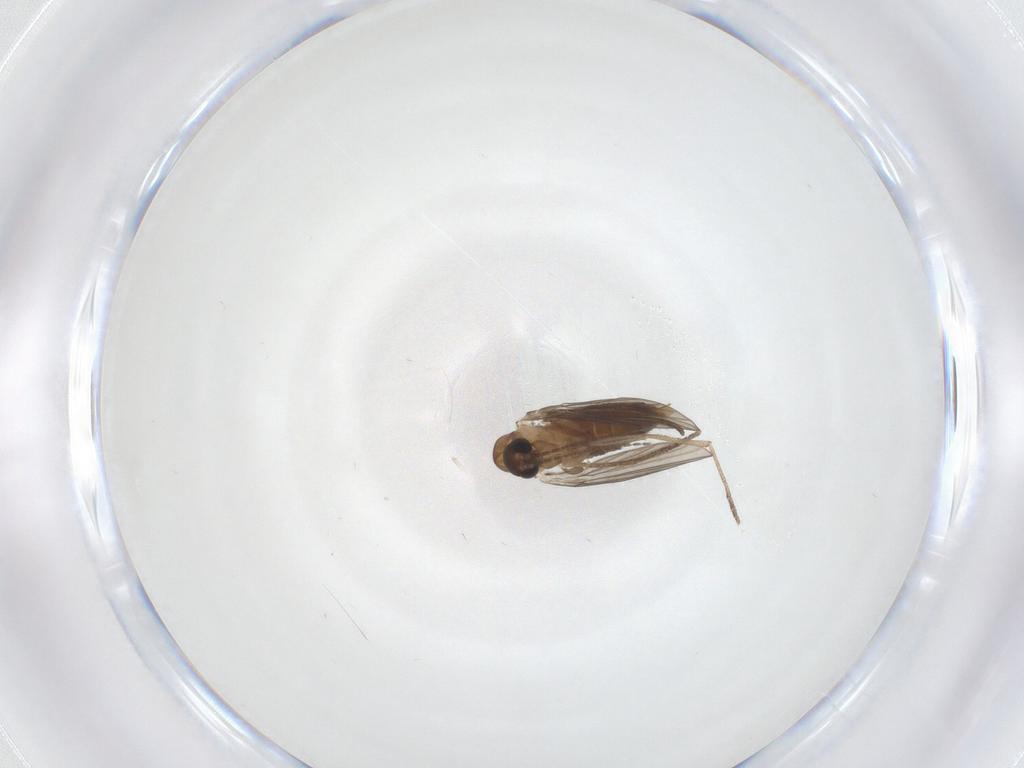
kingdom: Animalia
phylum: Arthropoda
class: Insecta
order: Diptera
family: Ditomyiidae
